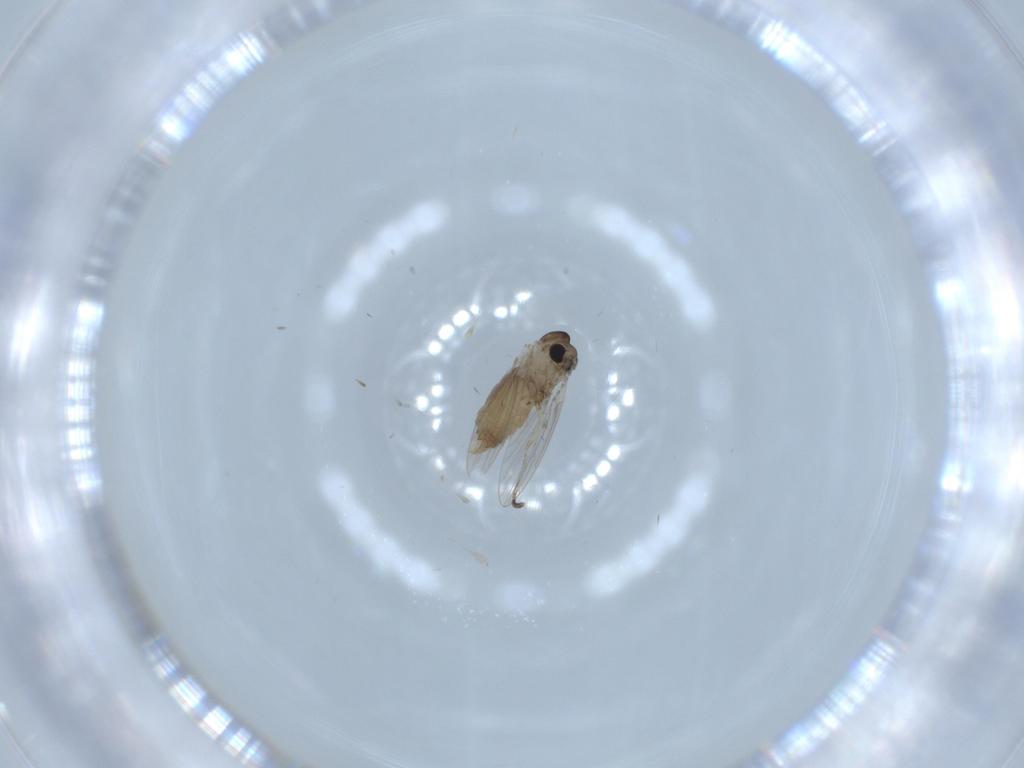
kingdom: Animalia
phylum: Arthropoda
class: Insecta
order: Diptera
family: Psychodidae
